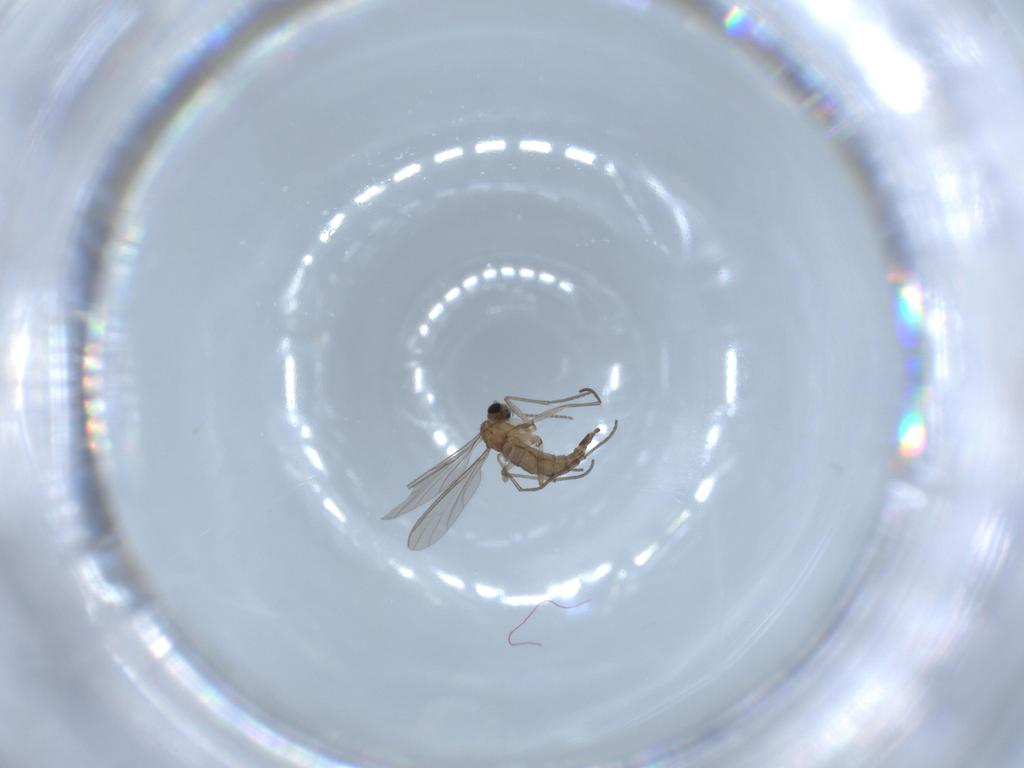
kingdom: Animalia
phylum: Arthropoda
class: Insecta
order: Diptera
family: Sciaridae
